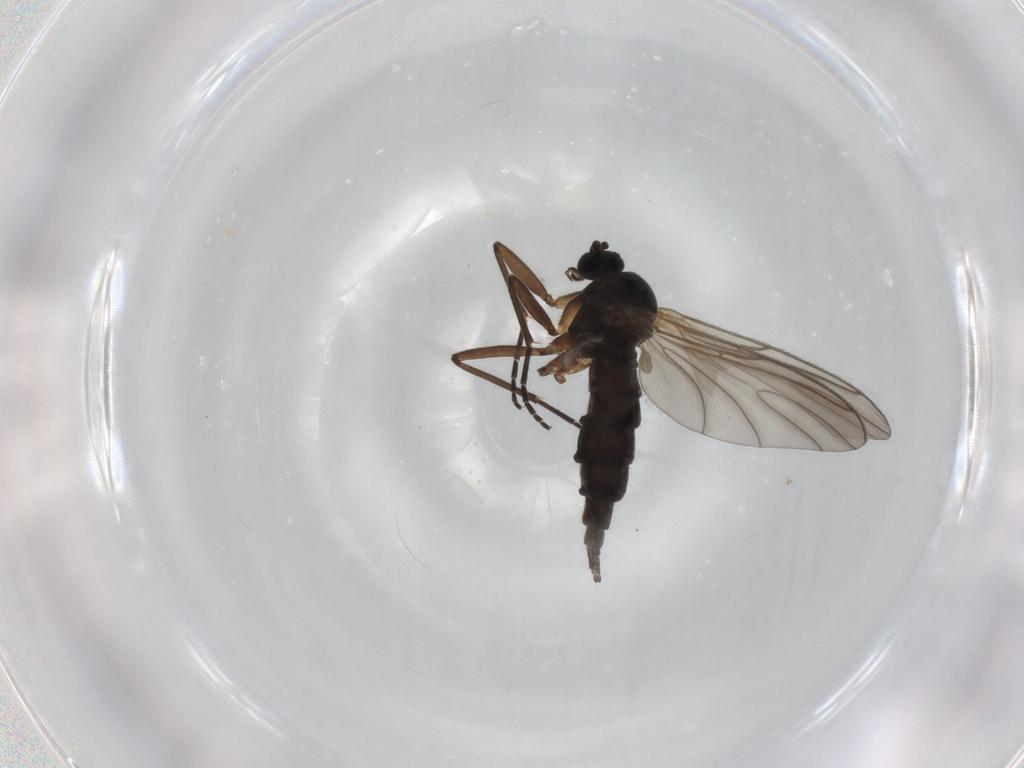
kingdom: Animalia
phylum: Arthropoda
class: Insecta
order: Diptera
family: Sciaridae
